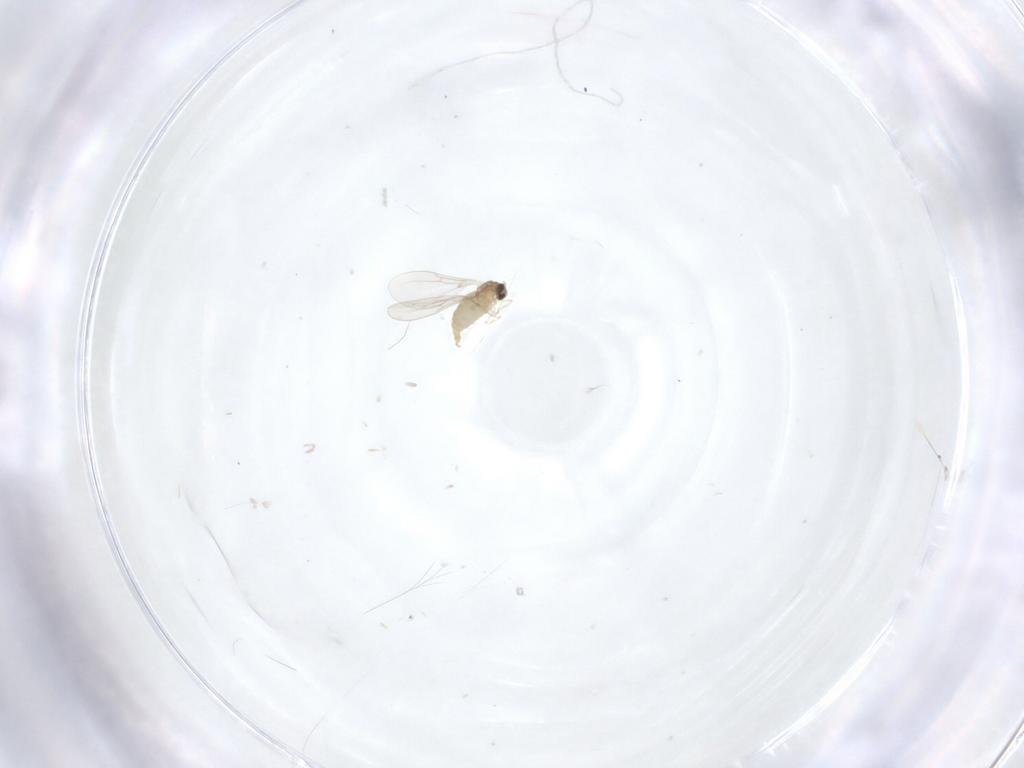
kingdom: Animalia
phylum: Arthropoda
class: Insecta
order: Diptera
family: Cecidomyiidae
